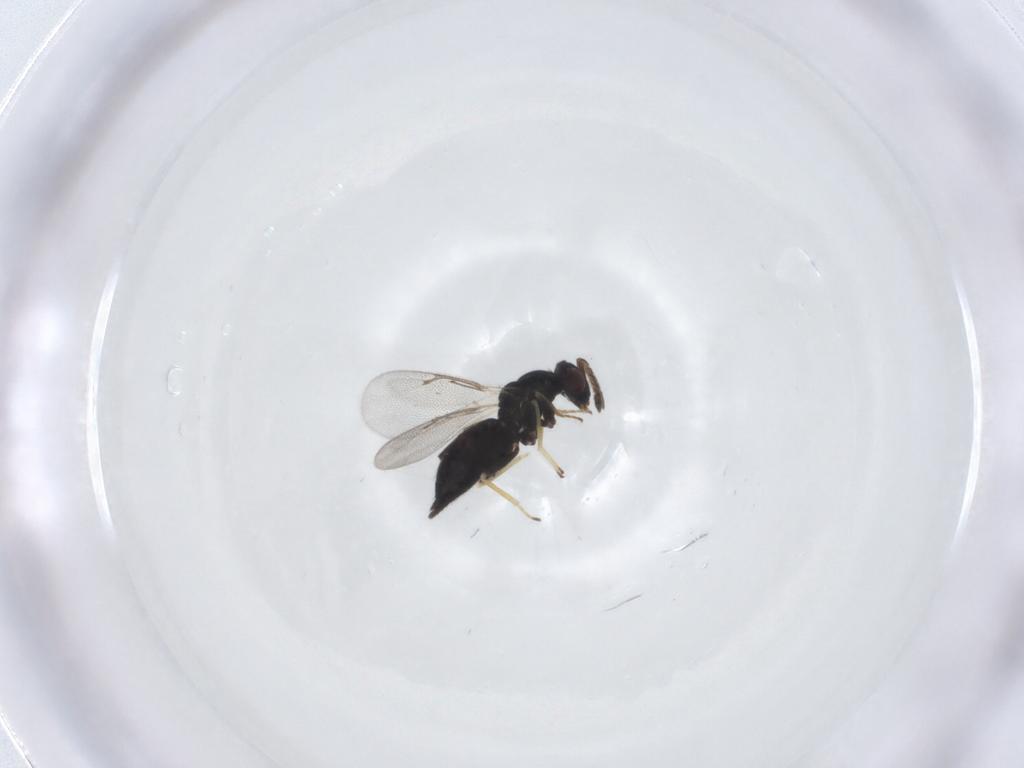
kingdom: Animalia
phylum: Arthropoda
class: Insecta
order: Hymenoptera
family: Eulophidae
